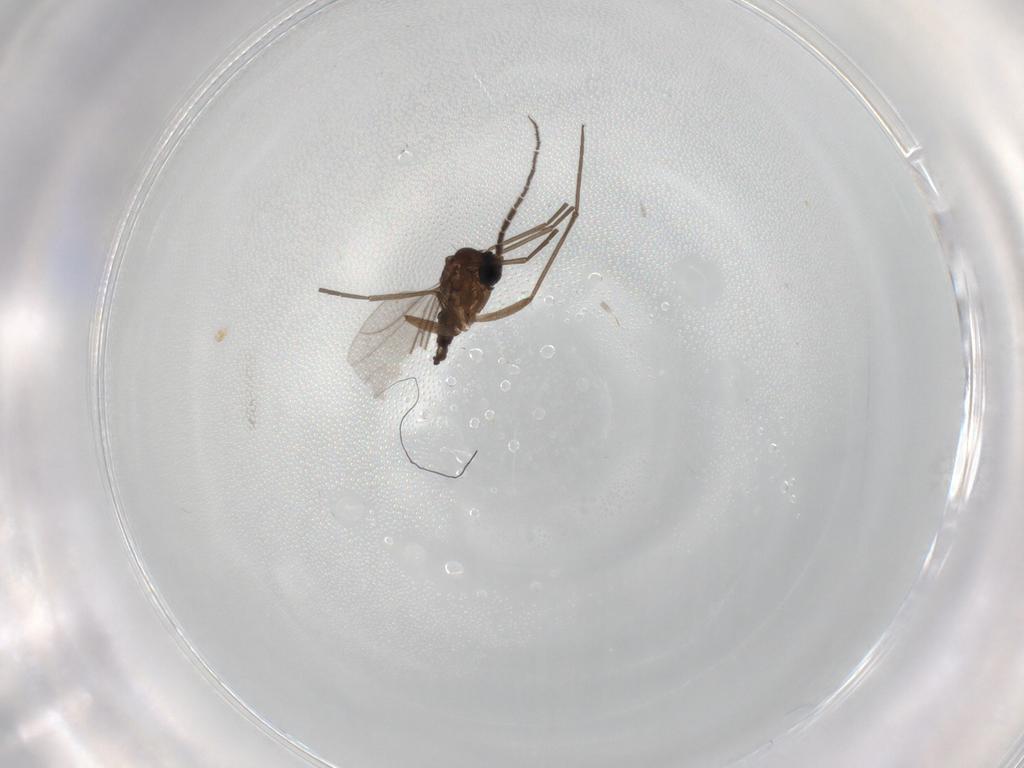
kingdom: Animalia
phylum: Arthropoda
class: Insecta
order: Diptera
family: Sciaridae
